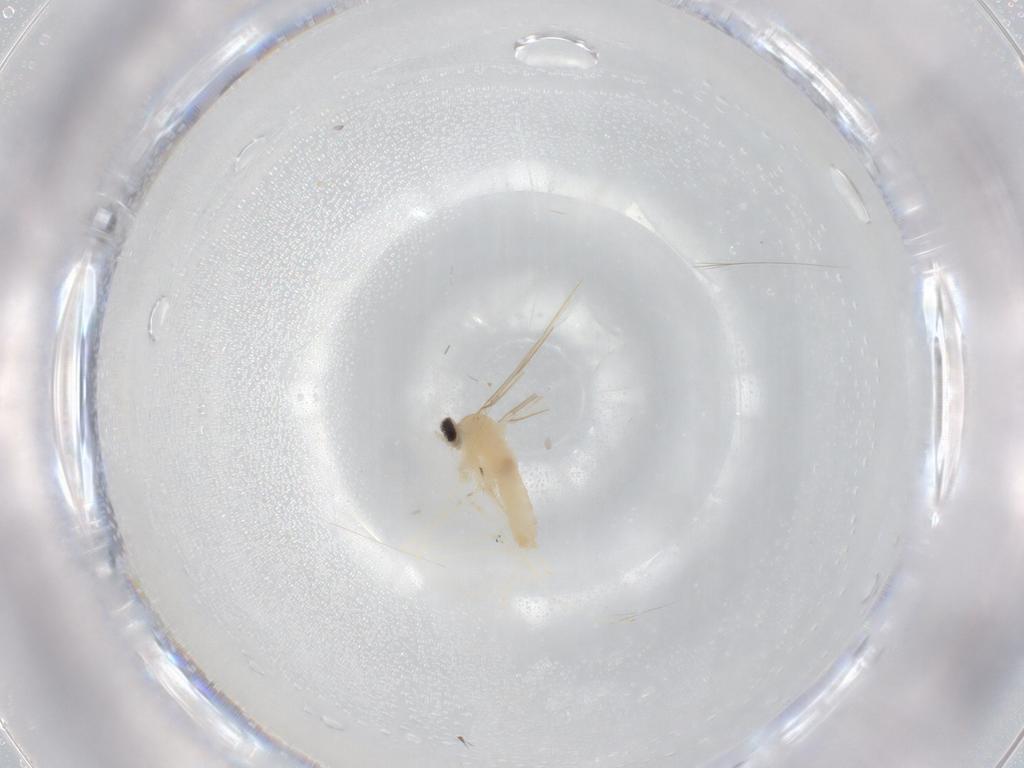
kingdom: Animalia
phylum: Arthropoda
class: Insecta
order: Diptera
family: Cecidomyiidae
